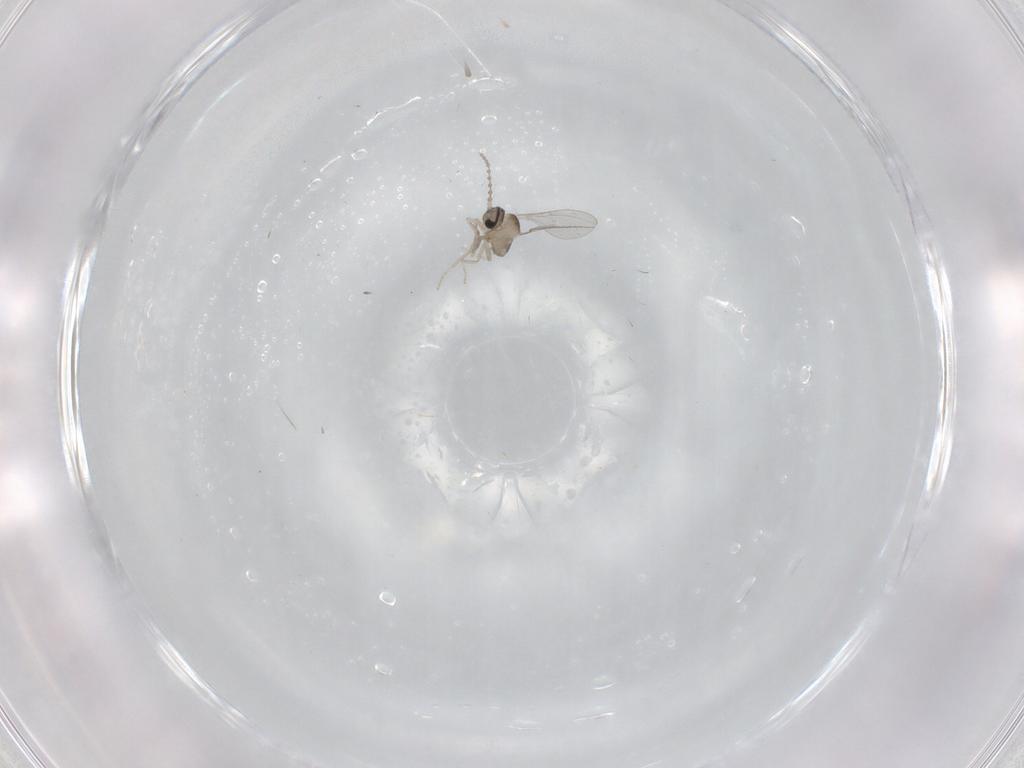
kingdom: Animalia
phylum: Arthropoda
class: Insecta
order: Diptera
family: Cecidomyiidae
